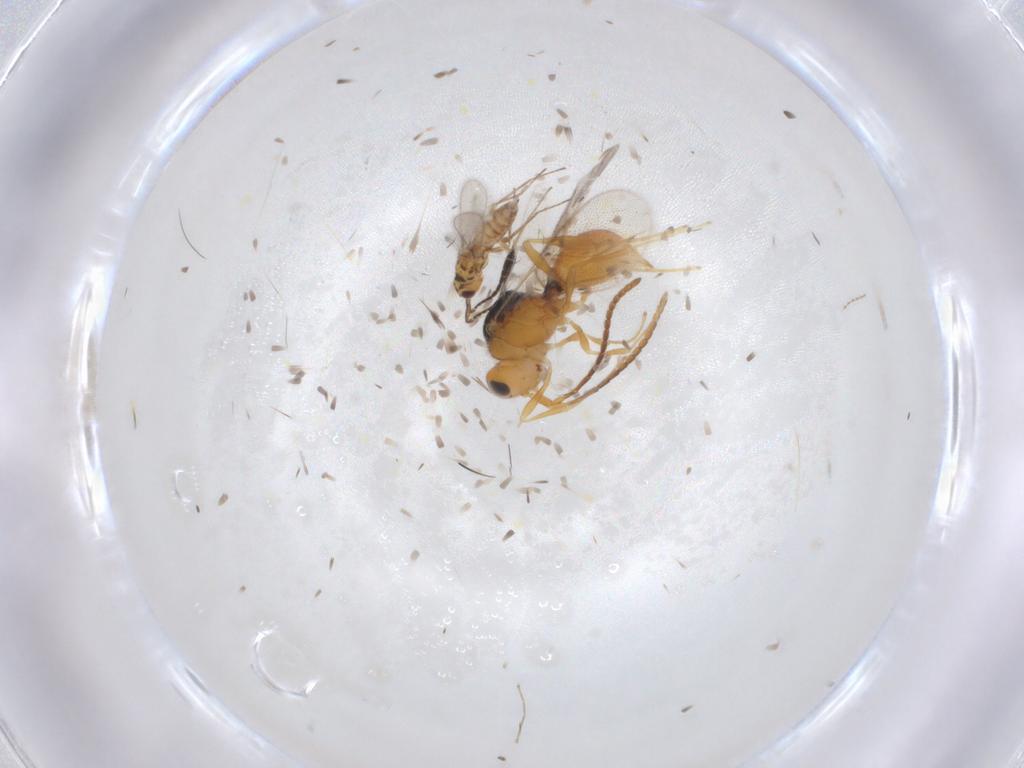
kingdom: Animalia
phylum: Arthropoda
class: Insecta
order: Hymenoptera
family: Diapriidae
